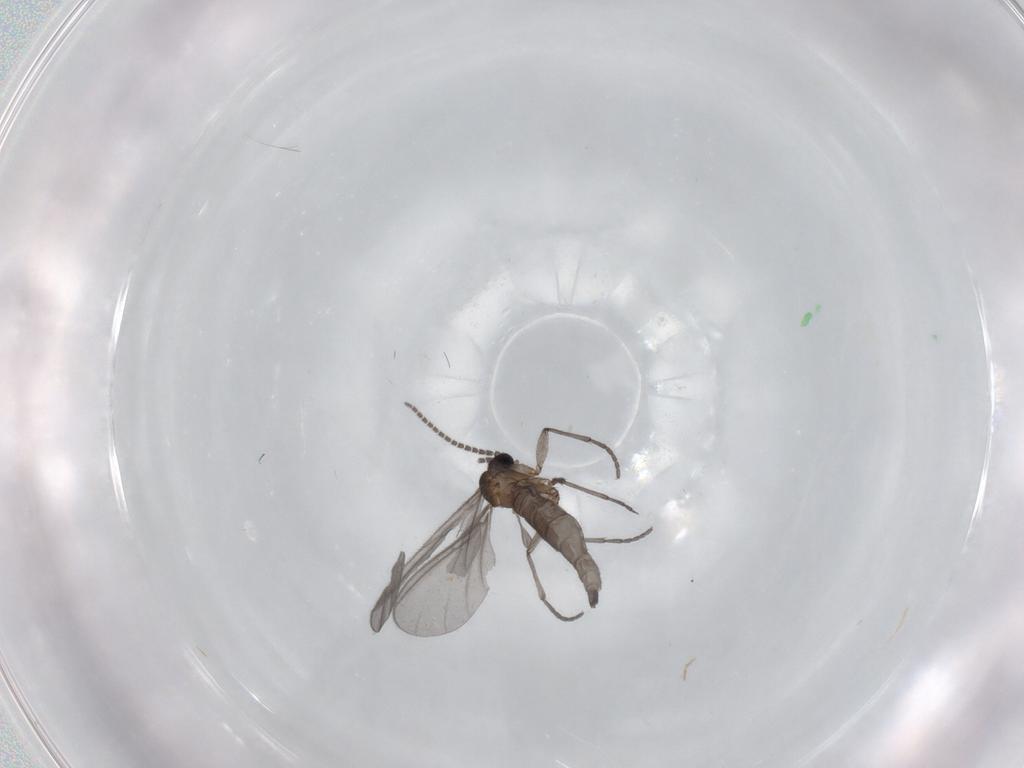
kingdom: Animalia
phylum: Arthropoda
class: Insecta
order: Diptera
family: Sciaridae
